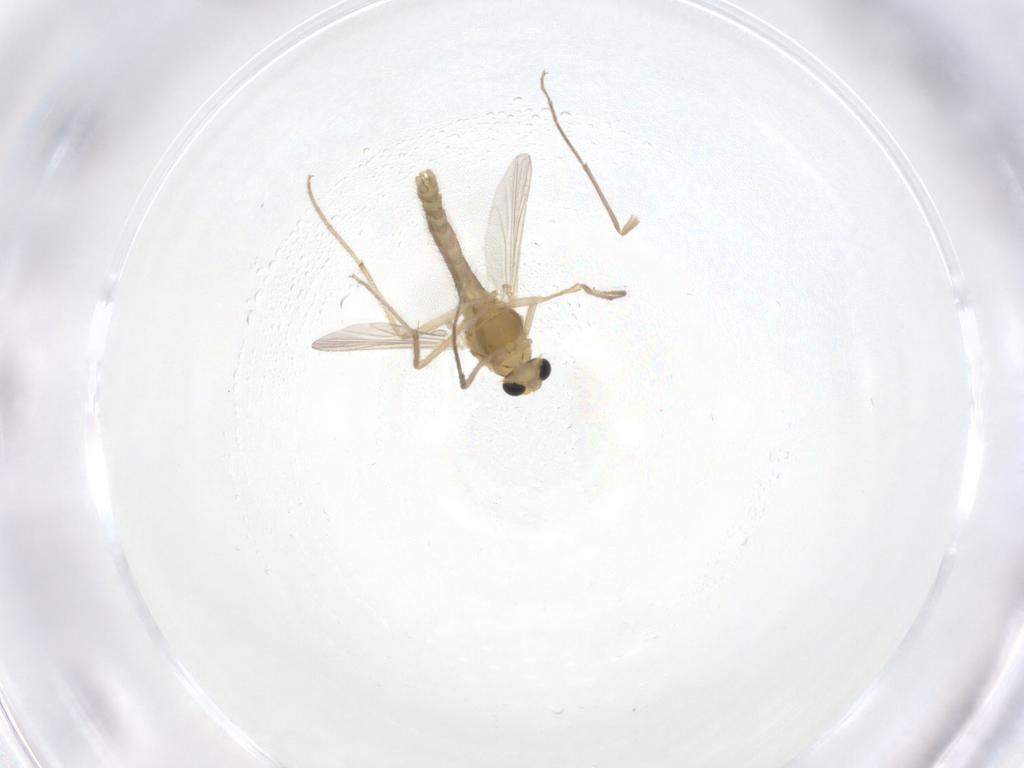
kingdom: Animalia
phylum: Arthropoda
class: Insecta
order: Diptera
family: Chironomidae
